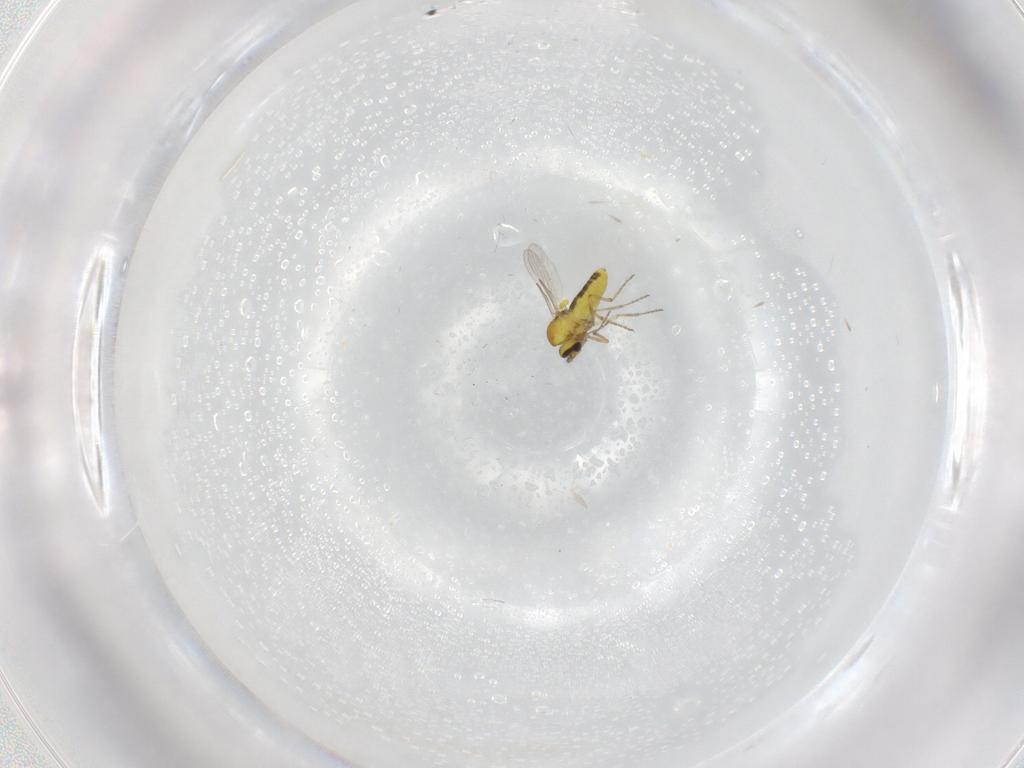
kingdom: Animalia
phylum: Arthropoda
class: Insecta
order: Diptera
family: Ceratopogonidae
